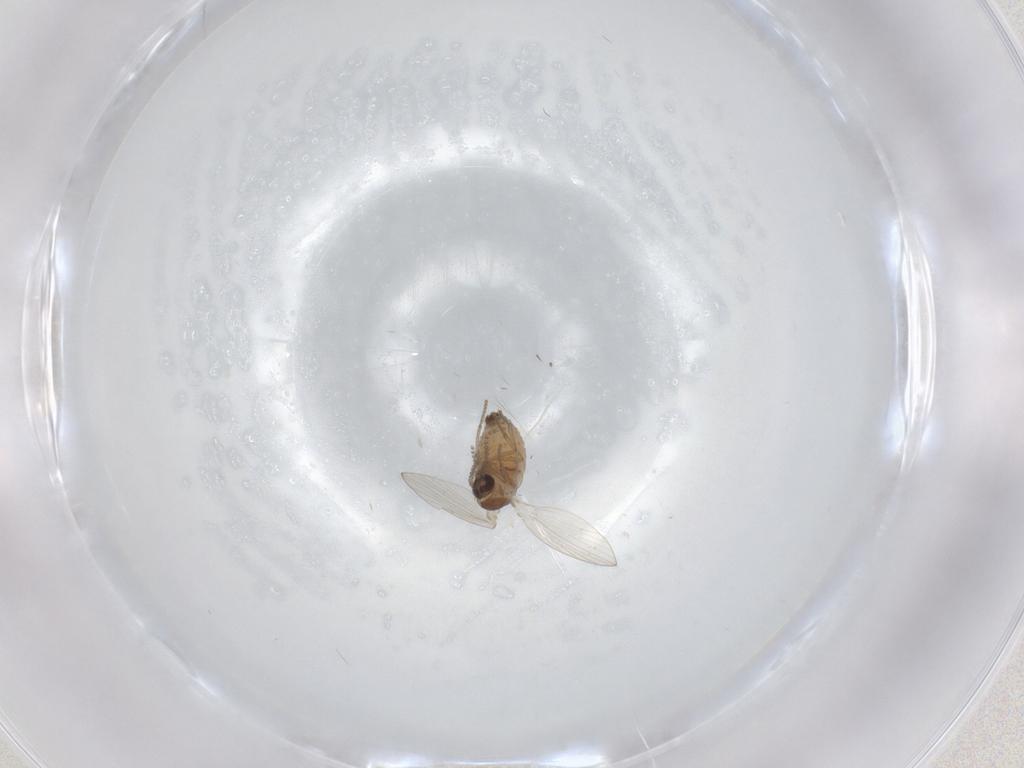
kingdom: Animalia
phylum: Arthropoda
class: Insecta
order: Diptera
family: Psychodidae
